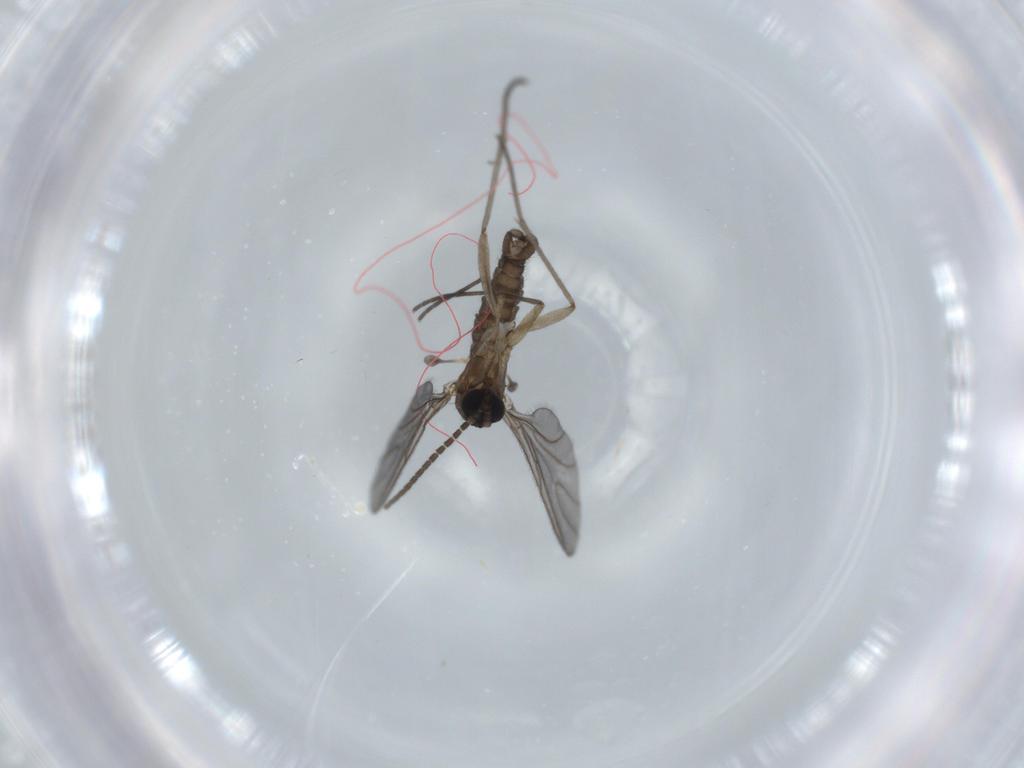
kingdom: Animalia
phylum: Arthropoda
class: Insecta
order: Diptera
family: Sciaridae
